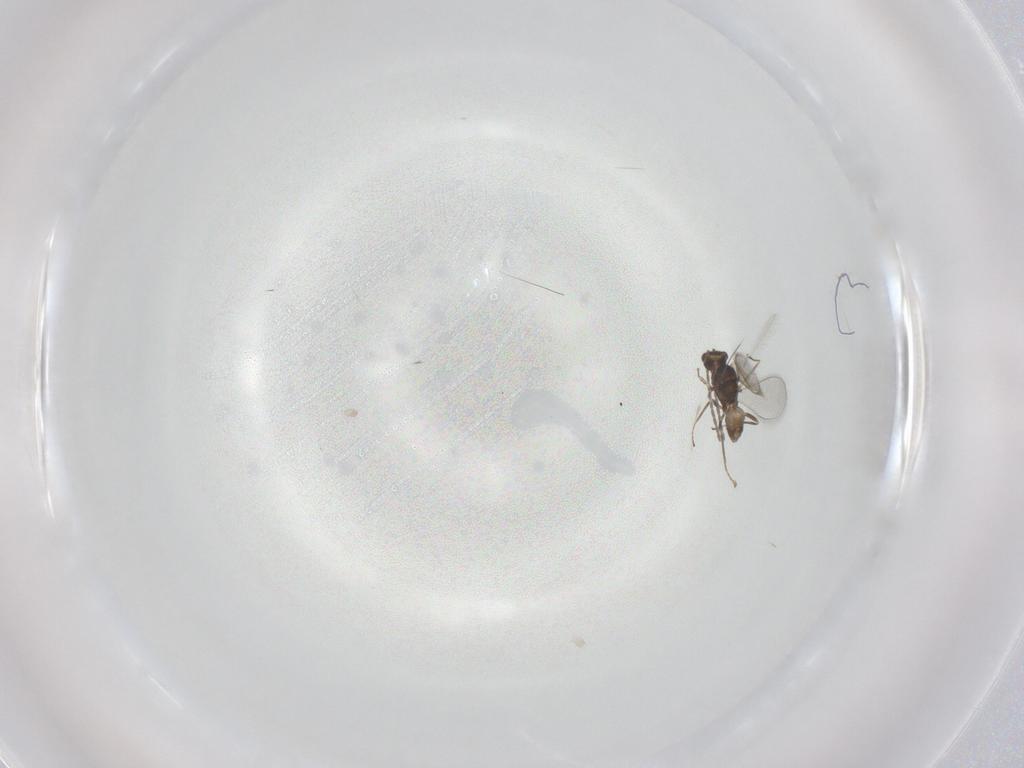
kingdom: Animalia
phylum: Arthropoda
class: Insecta
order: Hymenoptera
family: Mymaridae
